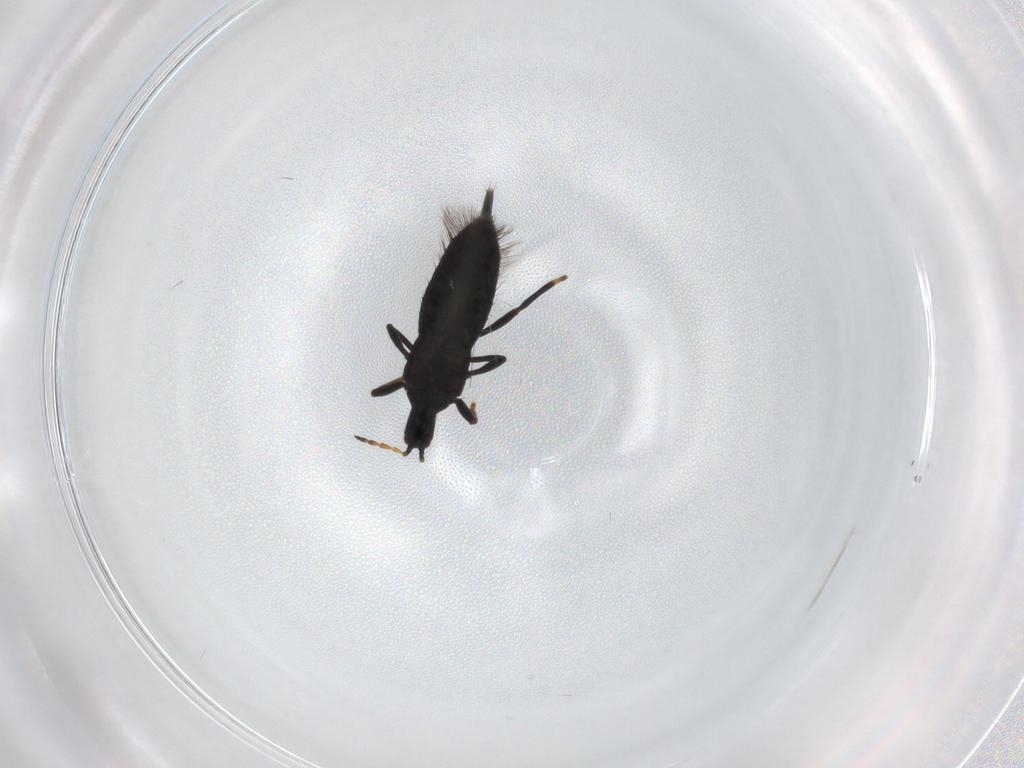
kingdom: Animalia
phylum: Arthropoda
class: Insecta
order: Thysanoptera
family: Phlaeothripidae
